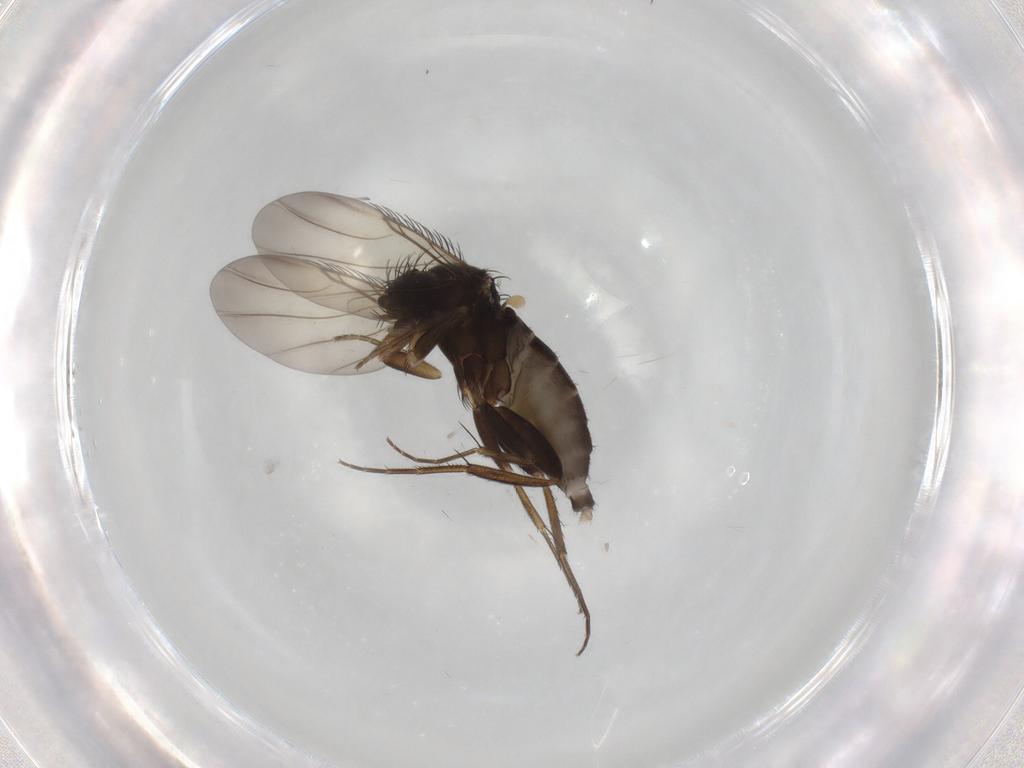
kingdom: Animalia
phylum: Arthropoda
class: Insecta
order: Diptera
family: Phoridae
